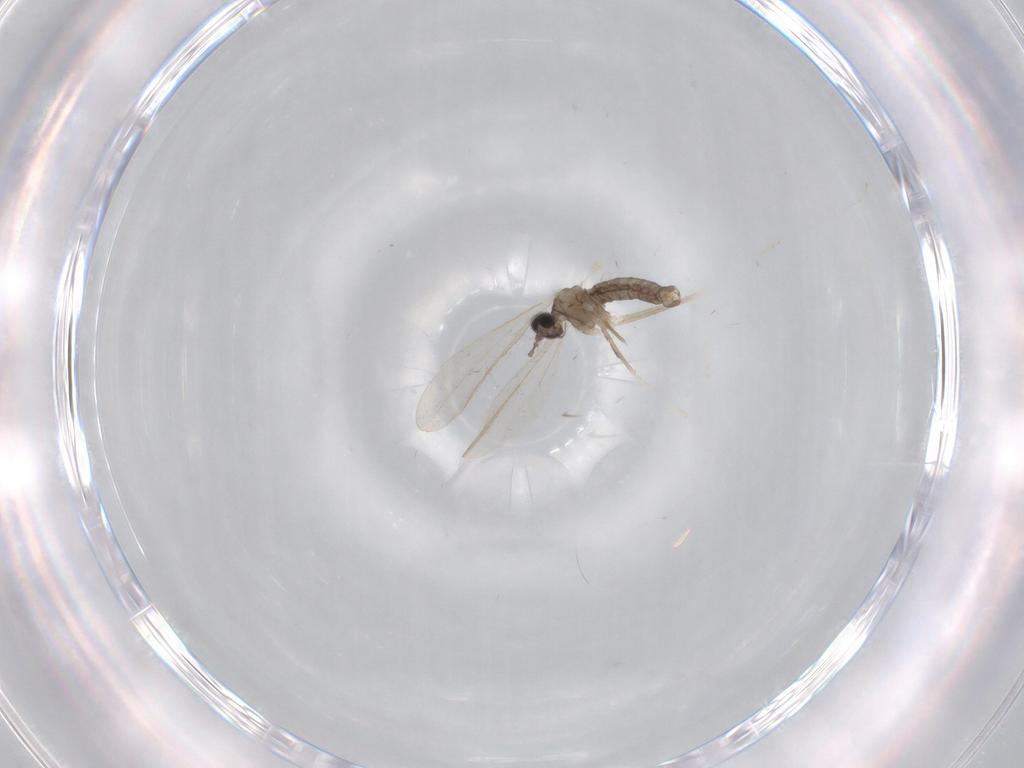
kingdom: Animalia
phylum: Arthropoda
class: Insecta
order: Diptera
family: Cecidomyiidae
